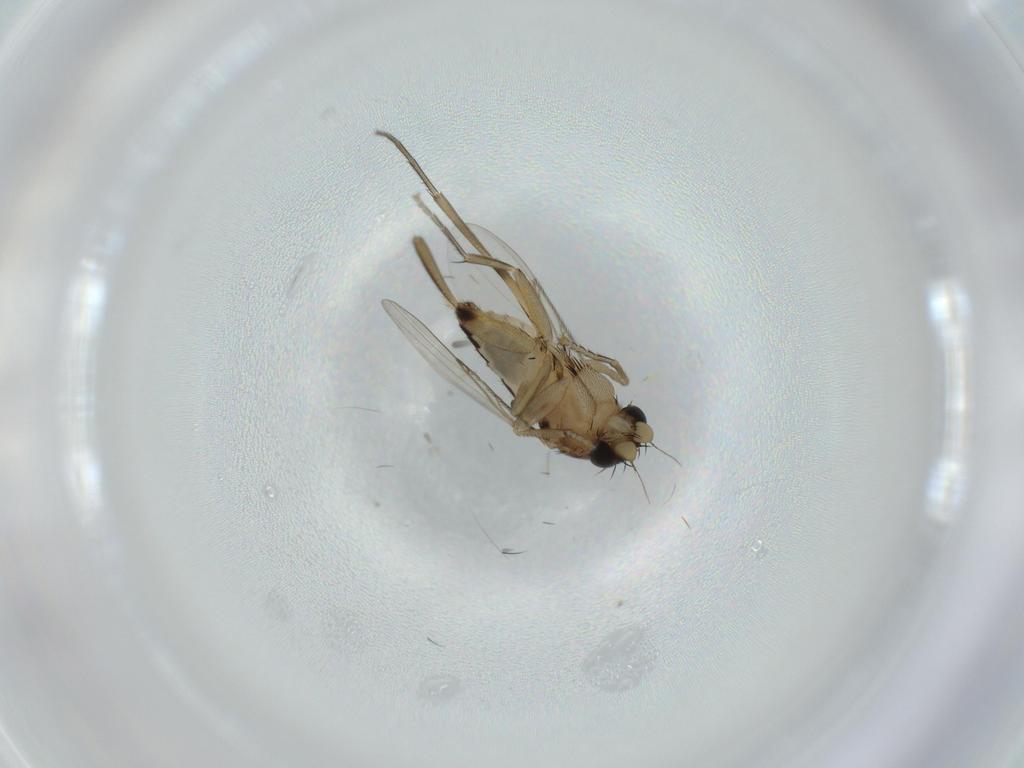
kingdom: Animalia
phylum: Arthropoda
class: Insecta
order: Diptera
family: Phoridae
